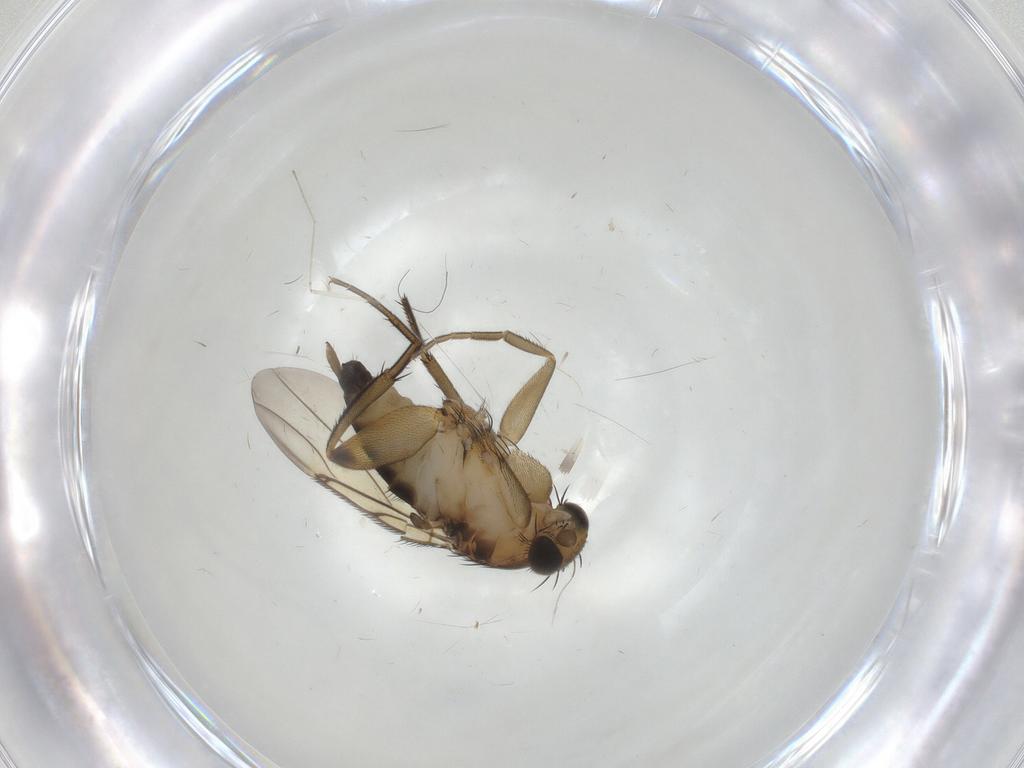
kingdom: Animalia
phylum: Arthropoda
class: Insecta
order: Diptera
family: Phoridae
